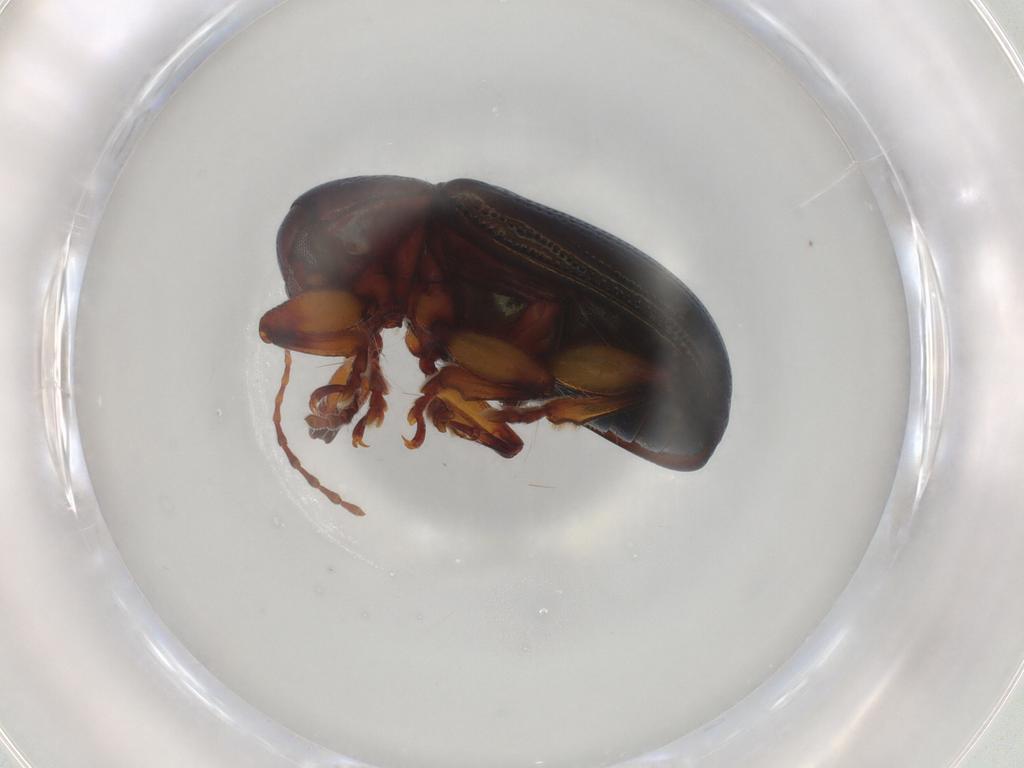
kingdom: Animalia
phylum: Arthropoda
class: Insecta
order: Coleoptera
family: Chrysomelidae
